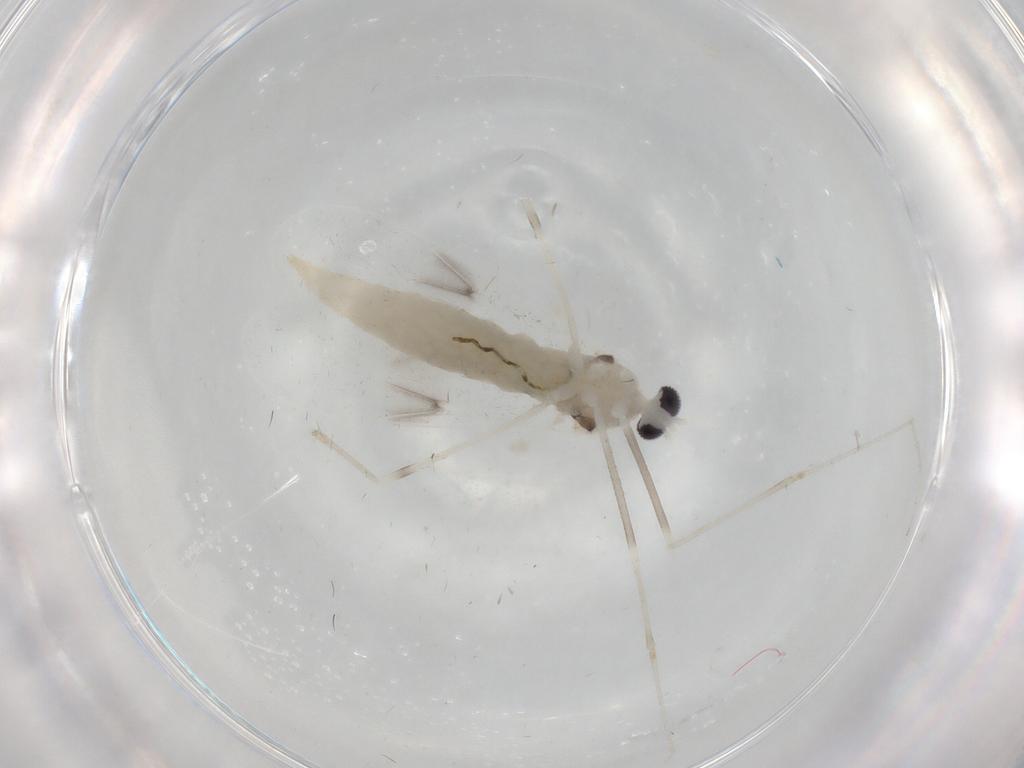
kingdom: Animalia
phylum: Arthropoda
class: Insecta
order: Diptera
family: Cecidomyiidae
